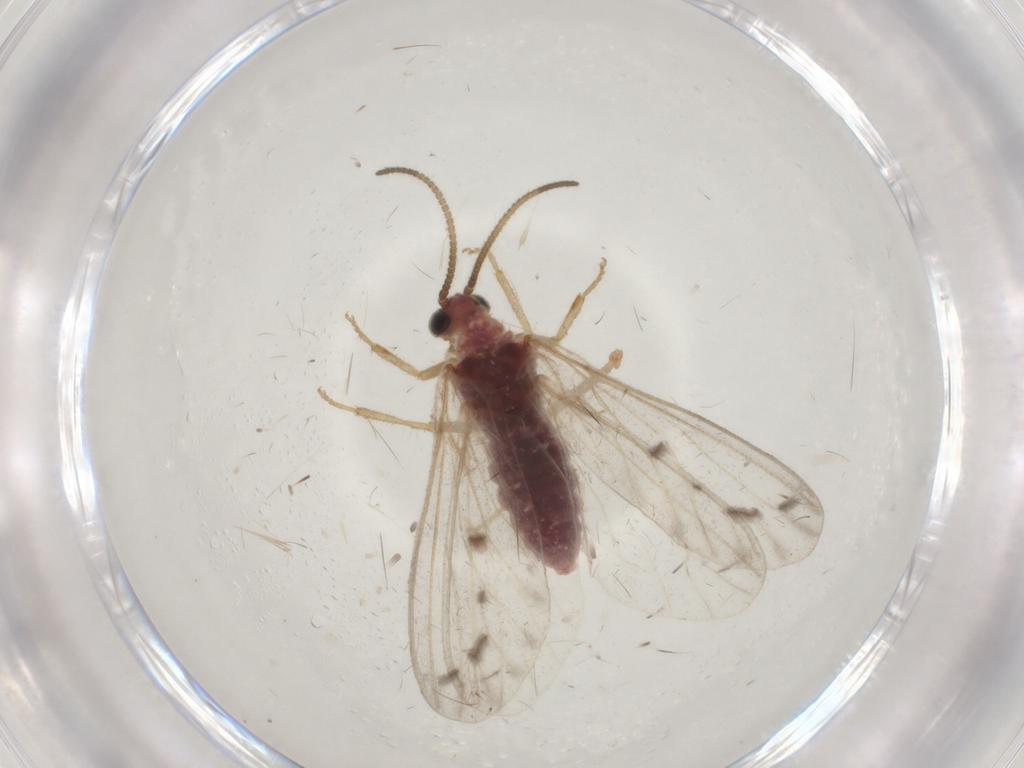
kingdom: Animalia
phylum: Arthropoda
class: Insecta
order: Neuroptera
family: Coniopterygidae
